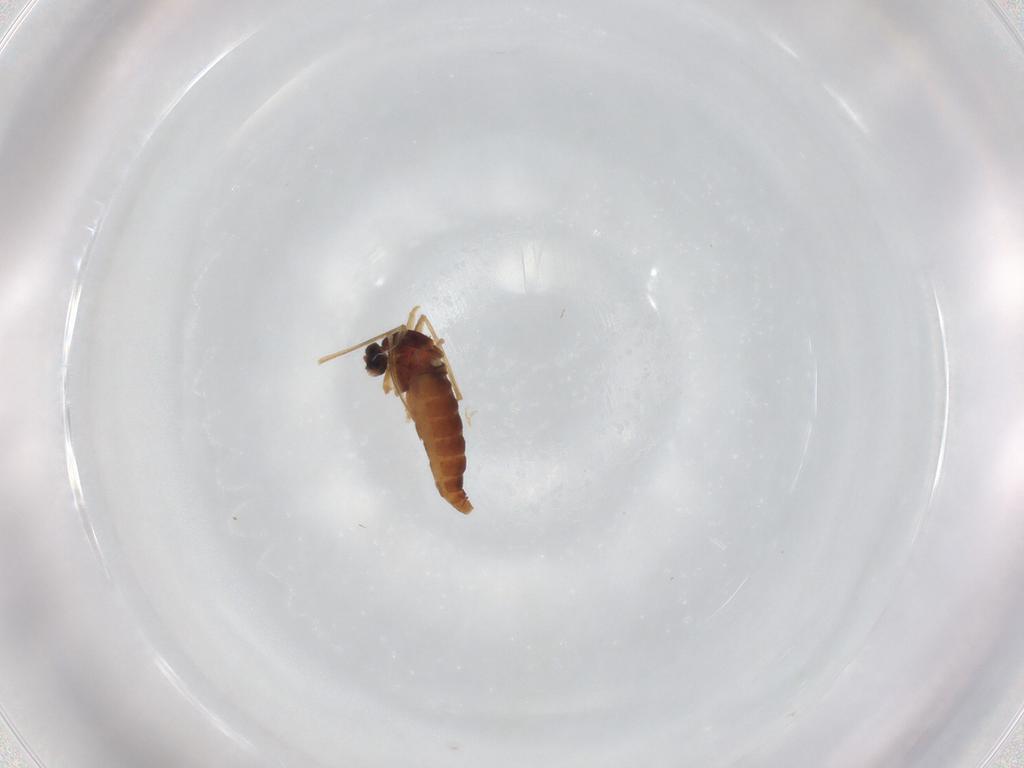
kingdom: Animalia
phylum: Arthropoda
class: Insecta
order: Diptera
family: Cecidomyiidae
